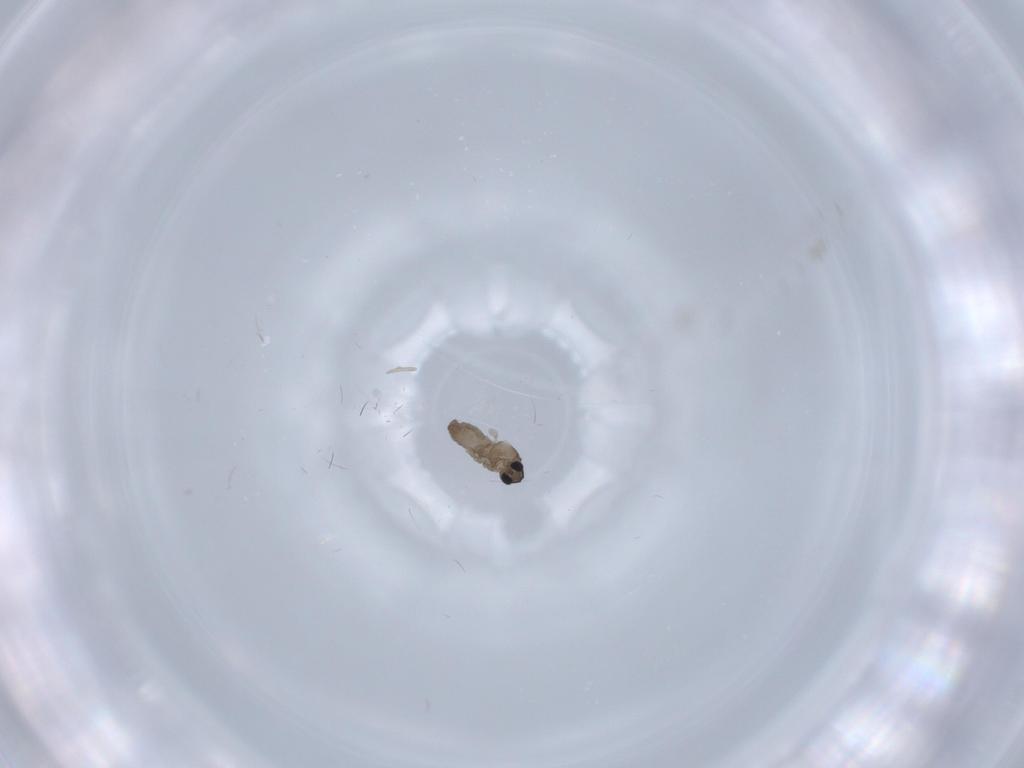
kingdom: Animalia
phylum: Arthropoda
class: Insecta
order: Diptera
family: Cecidomyiidae
